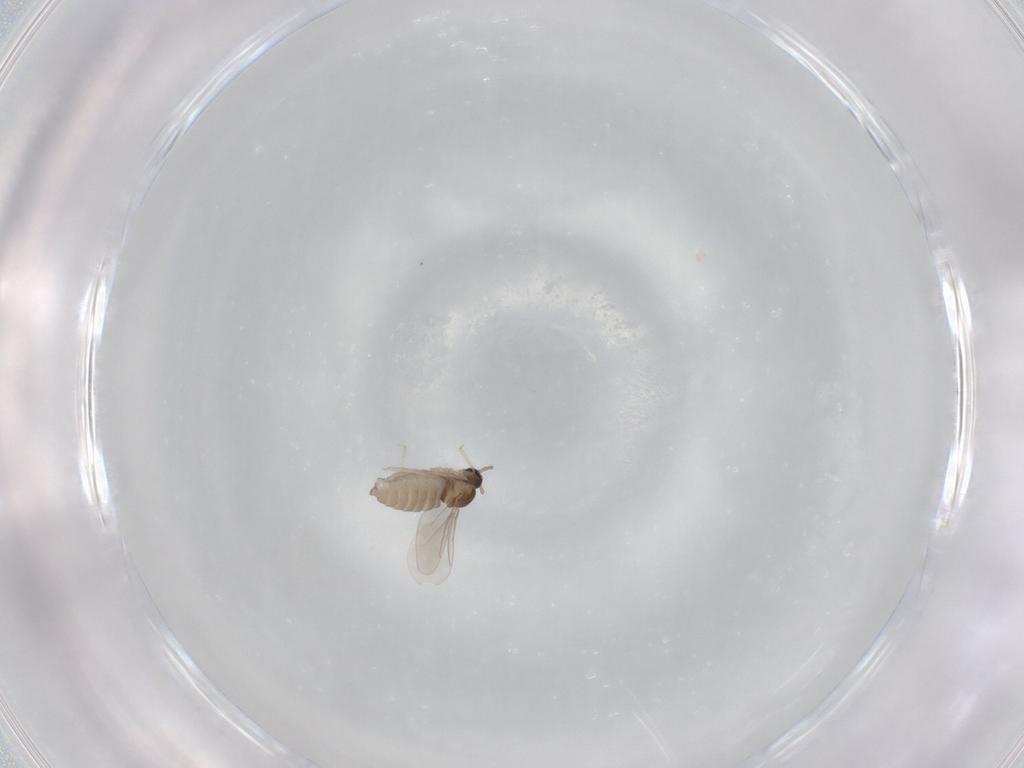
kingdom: Animalia
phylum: Arthropoda
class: Insecta
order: Diptera
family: Cecidomyiidae
